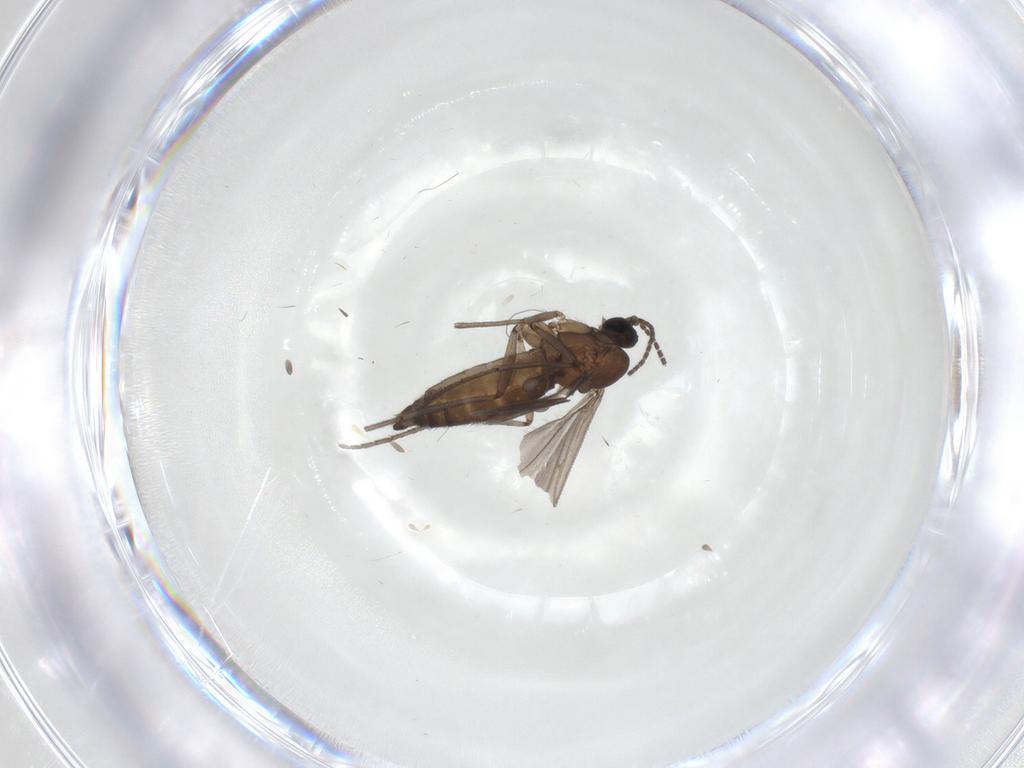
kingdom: Animalia
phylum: Arthropoda
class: Insecta
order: Diptera
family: Sciaridae
